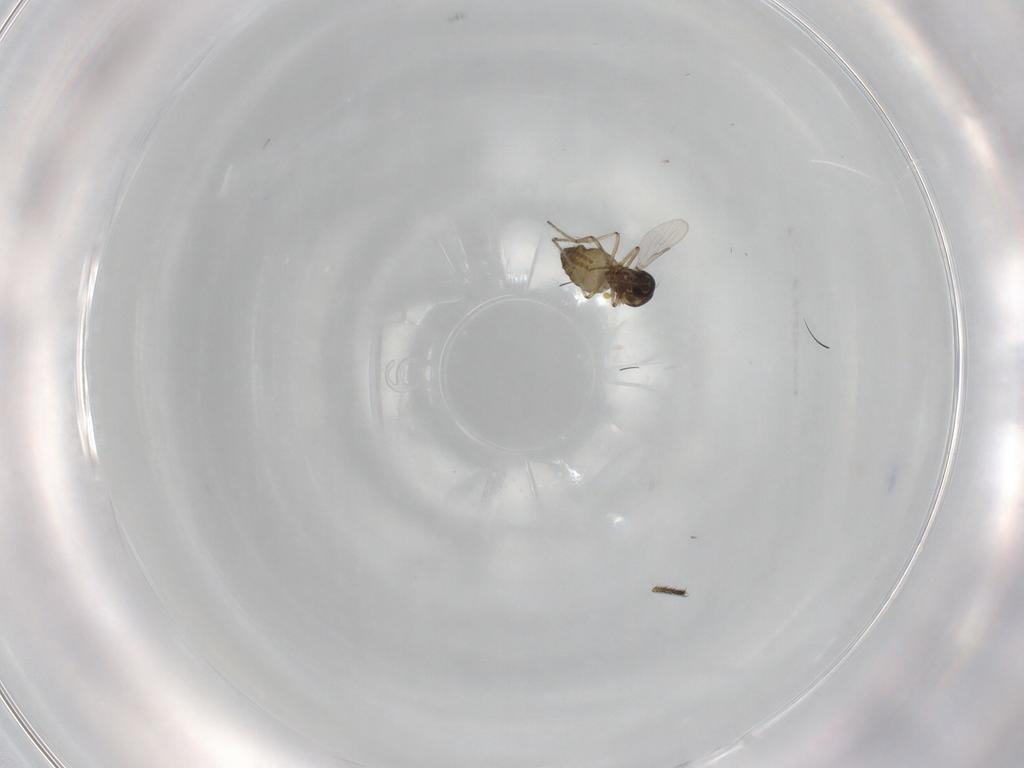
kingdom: Animalia
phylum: Arthropoda
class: Insecta
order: Diptera
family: Ceratopogonidae
